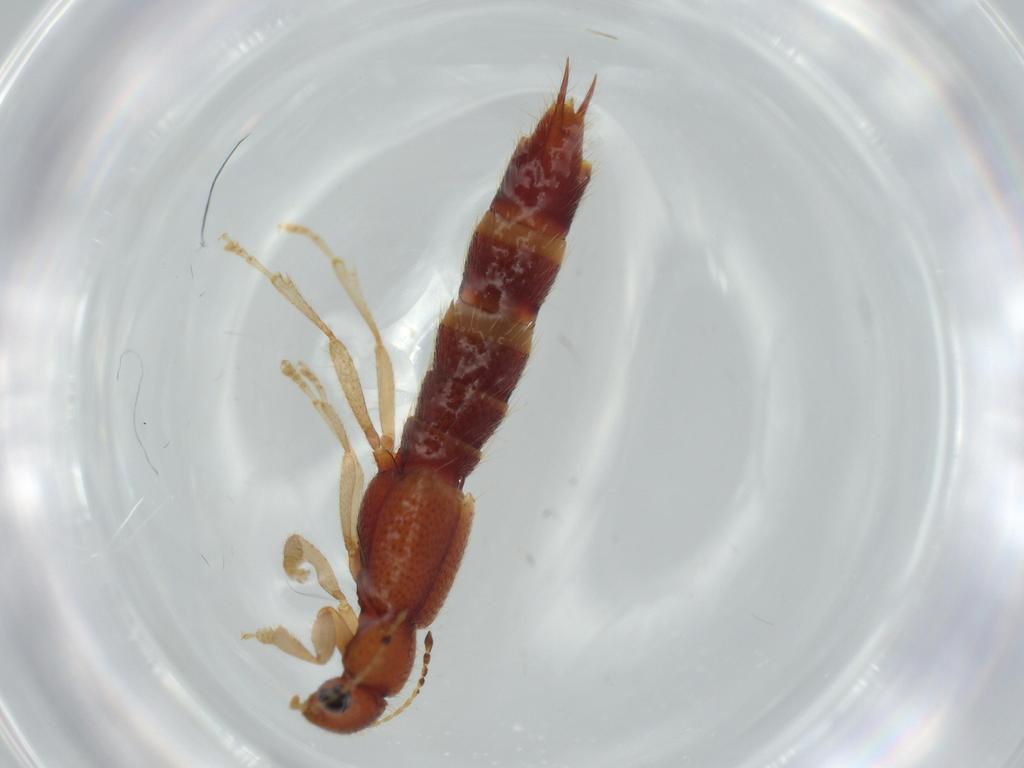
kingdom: Animalia
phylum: Arthropoda
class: Insecta
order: Coleoptera
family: Staphylinidae
